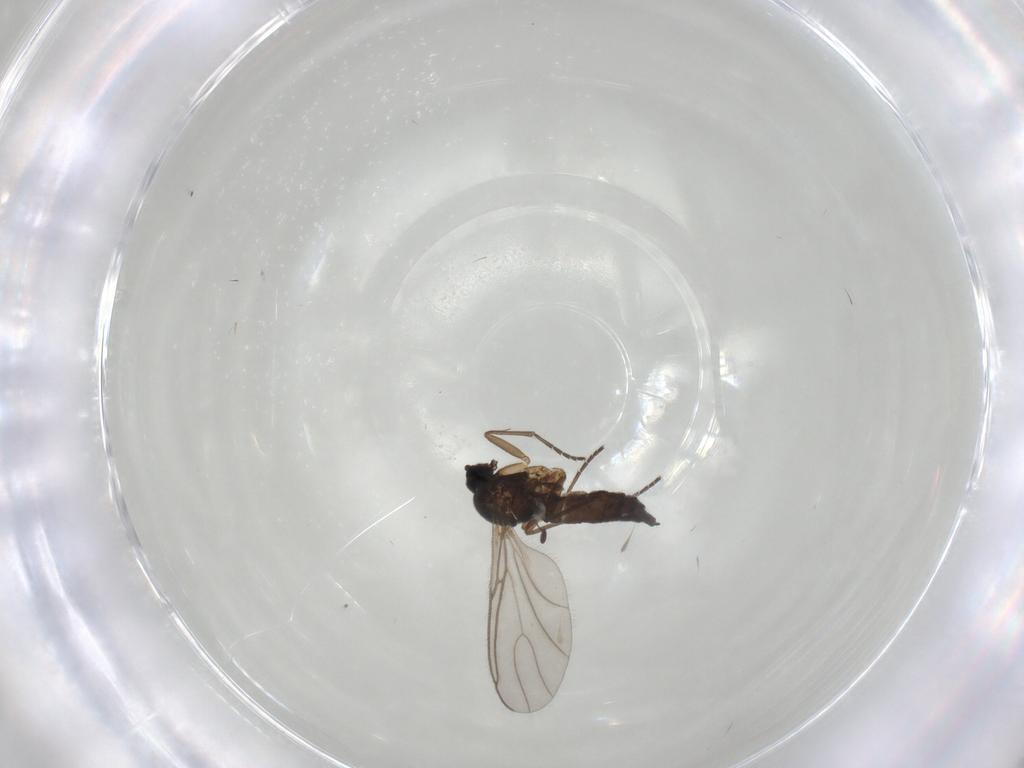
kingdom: Animalia
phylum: Arthropoda
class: Insecta
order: Diptera
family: Sciaridae
